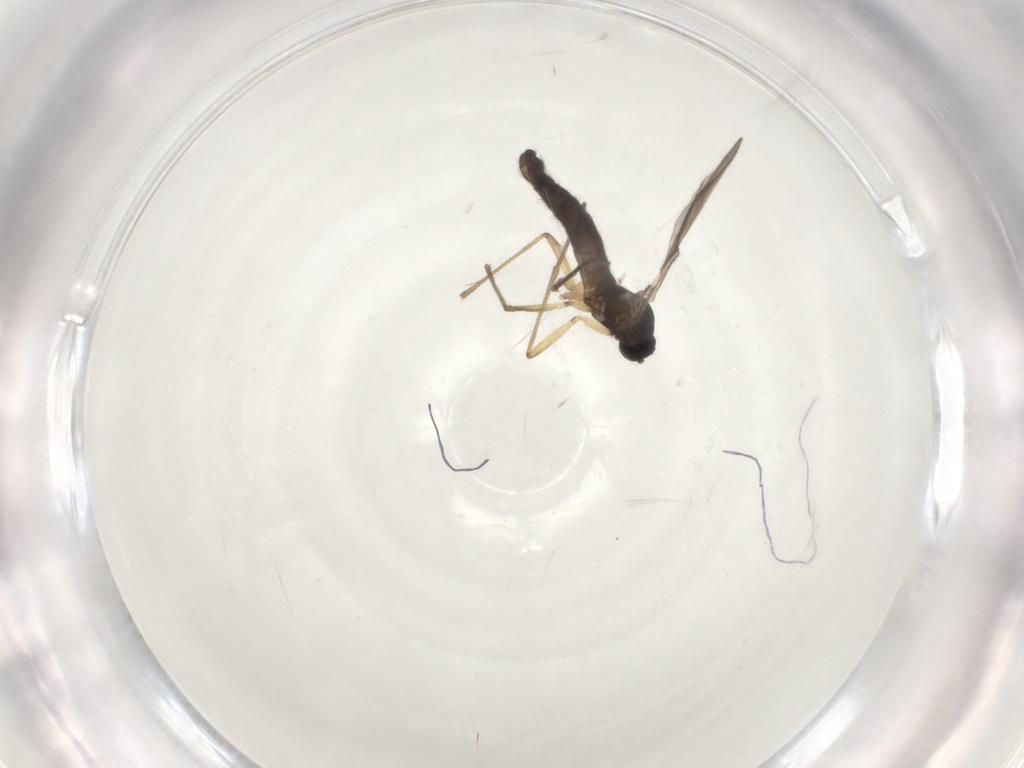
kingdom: Animalia
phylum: Arthropoda
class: Insecta
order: Diptera
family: Sciaridae
